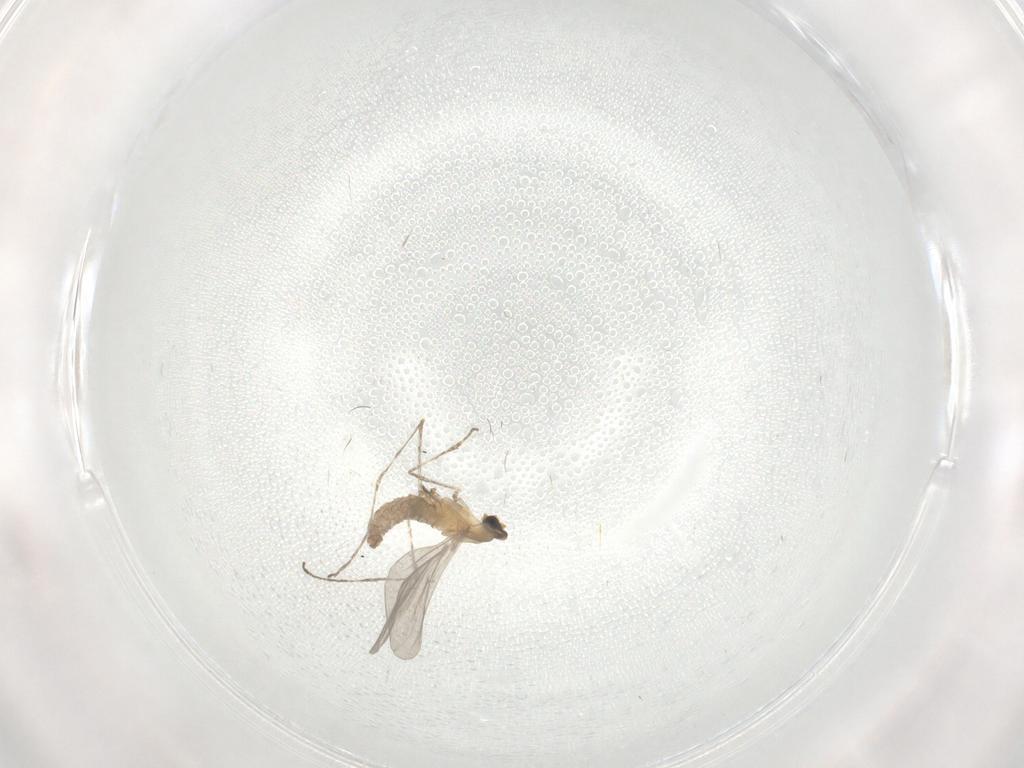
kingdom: Animalia
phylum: Arthropoda
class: Insecta
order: Diptera
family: Cecidomyiidae
